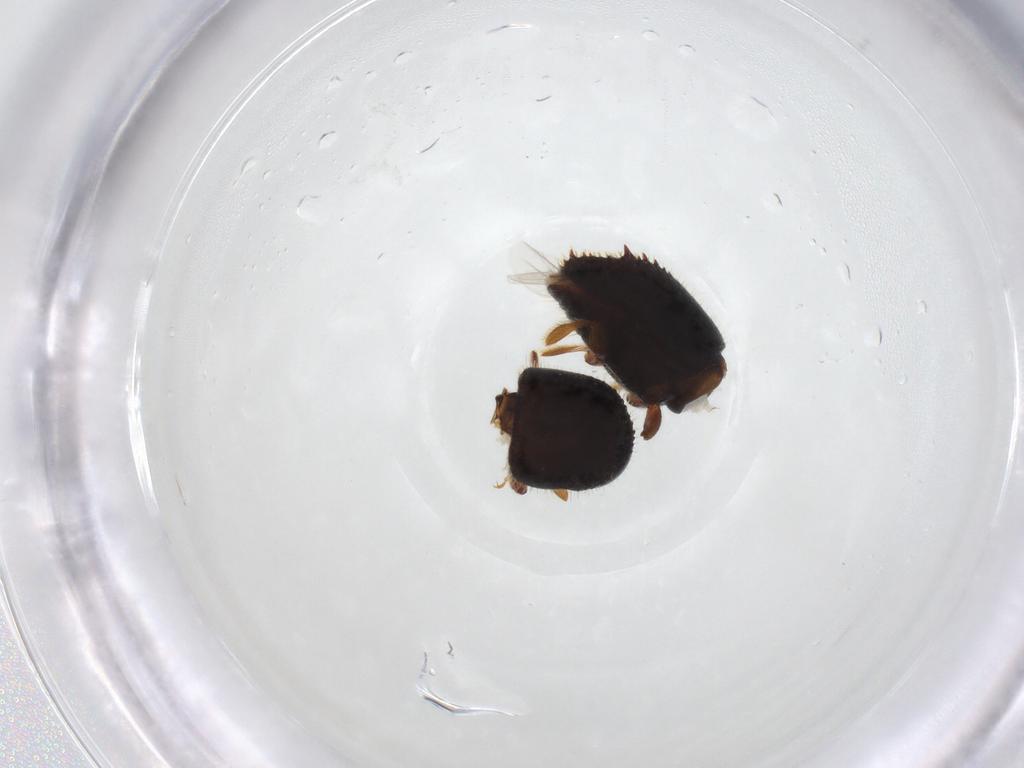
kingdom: Animalia
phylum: Arthropoda
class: Insecta
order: Coleoptera
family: Curculionidae
